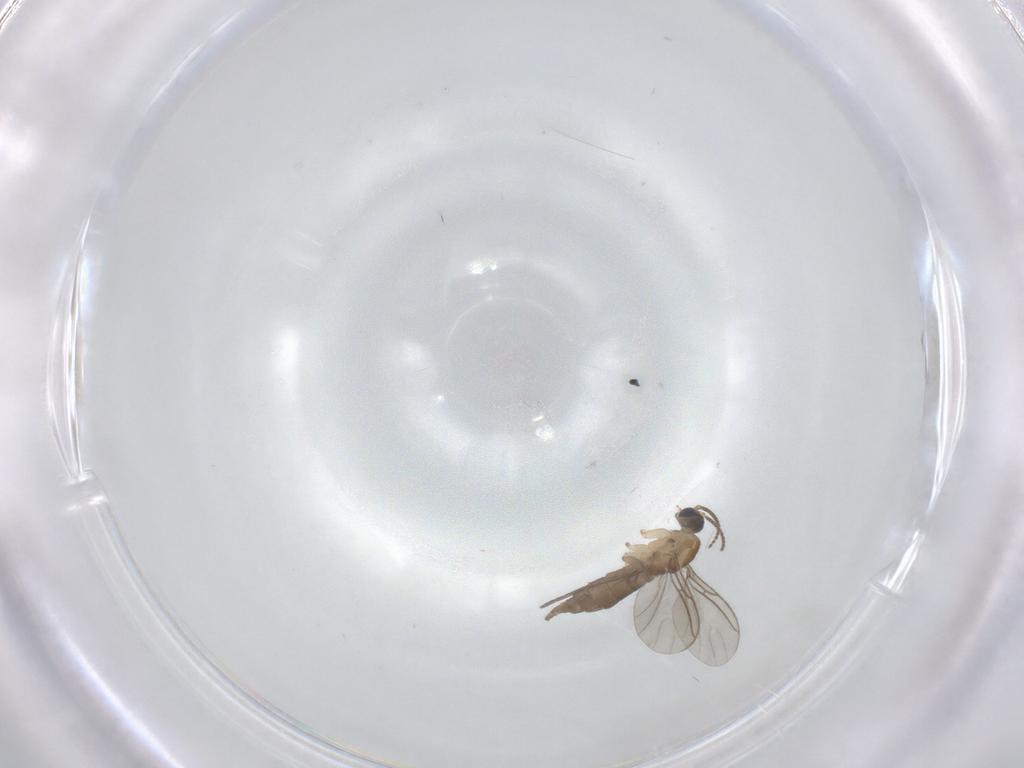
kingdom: Animalia
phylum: Arthropoda
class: Insecta
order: Diptera
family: Sciaridae
